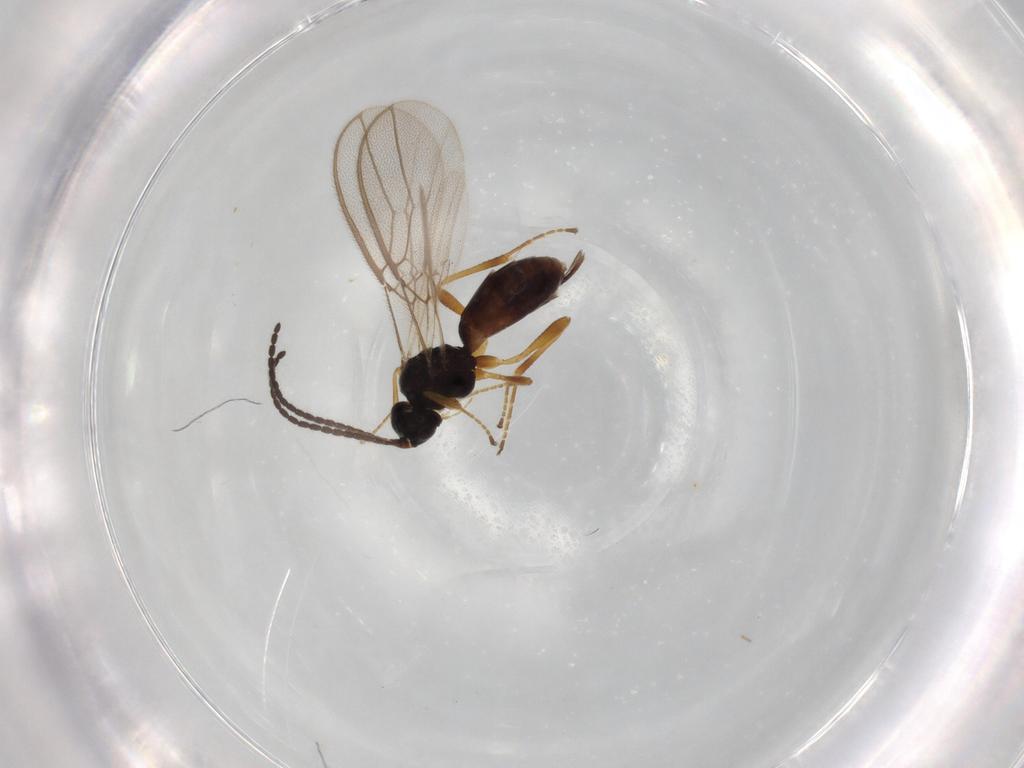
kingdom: Animalia
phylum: Arthropoda
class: Insecta
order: Hymenoptera
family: Braconidae
